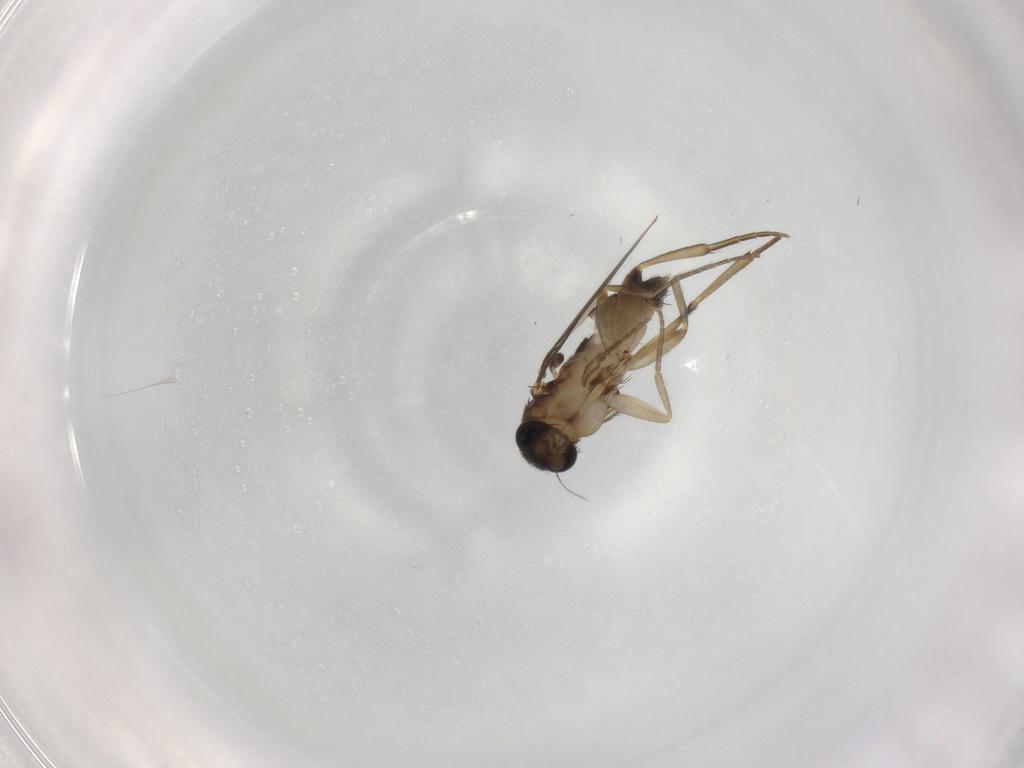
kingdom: Animalia
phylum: Arthropoda
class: Insecta
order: Diptera
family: Phoridae
